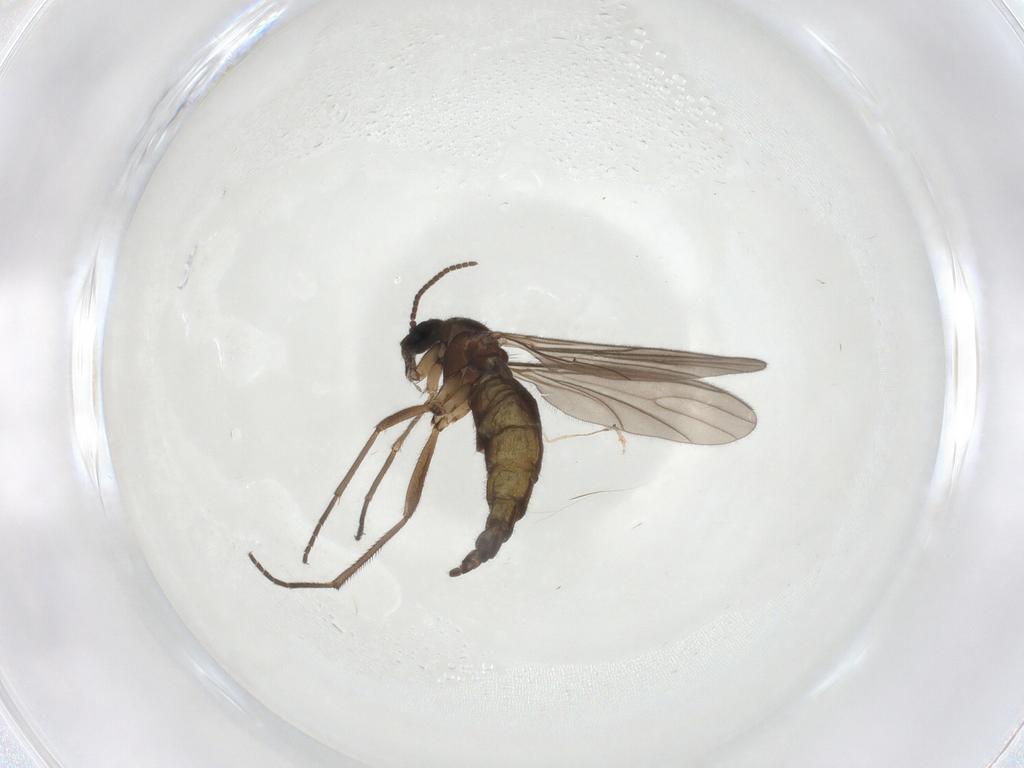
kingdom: Animalia
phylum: Arthropoda
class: Insecta
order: Diptera
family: Sciaridae
